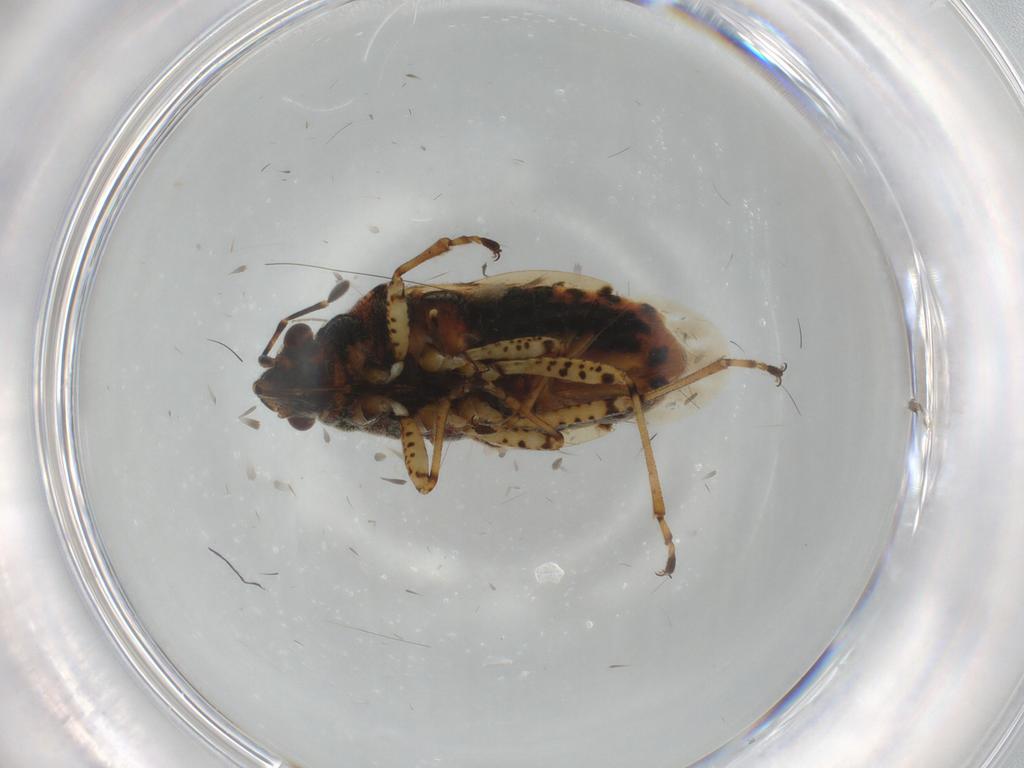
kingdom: Animalia
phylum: Arthropoda
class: Insecta
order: Hemiptera
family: Lygaeidae
